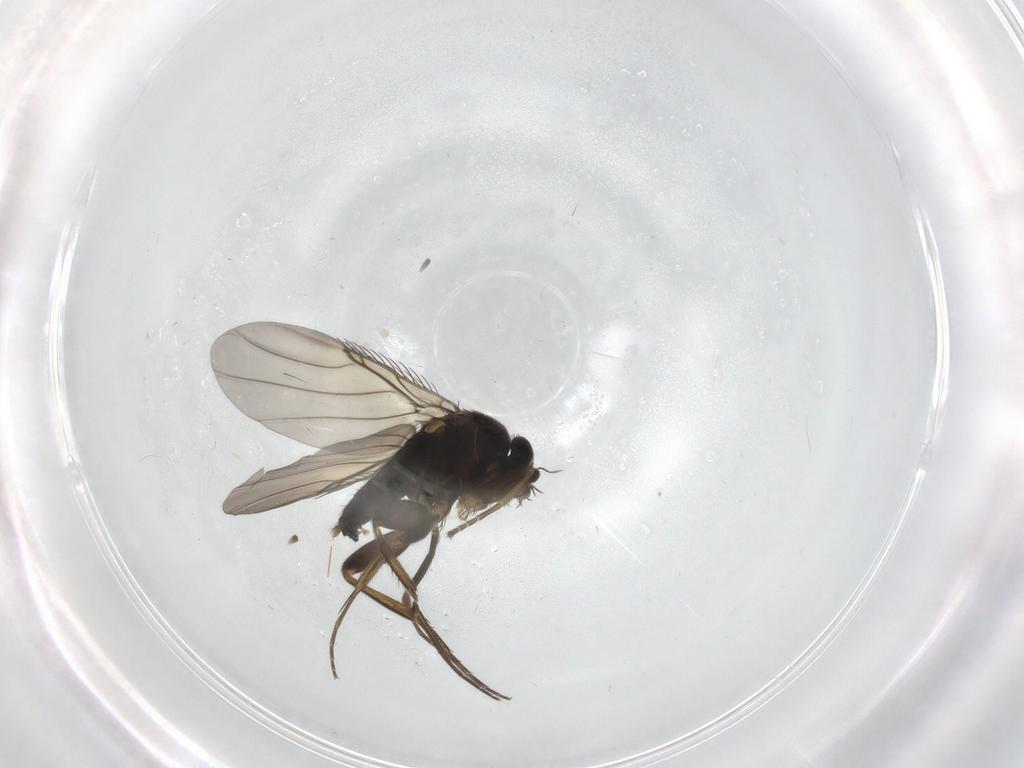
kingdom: Animalia
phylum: Arthropoda
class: Insecta
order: Diptera
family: Phoridae
